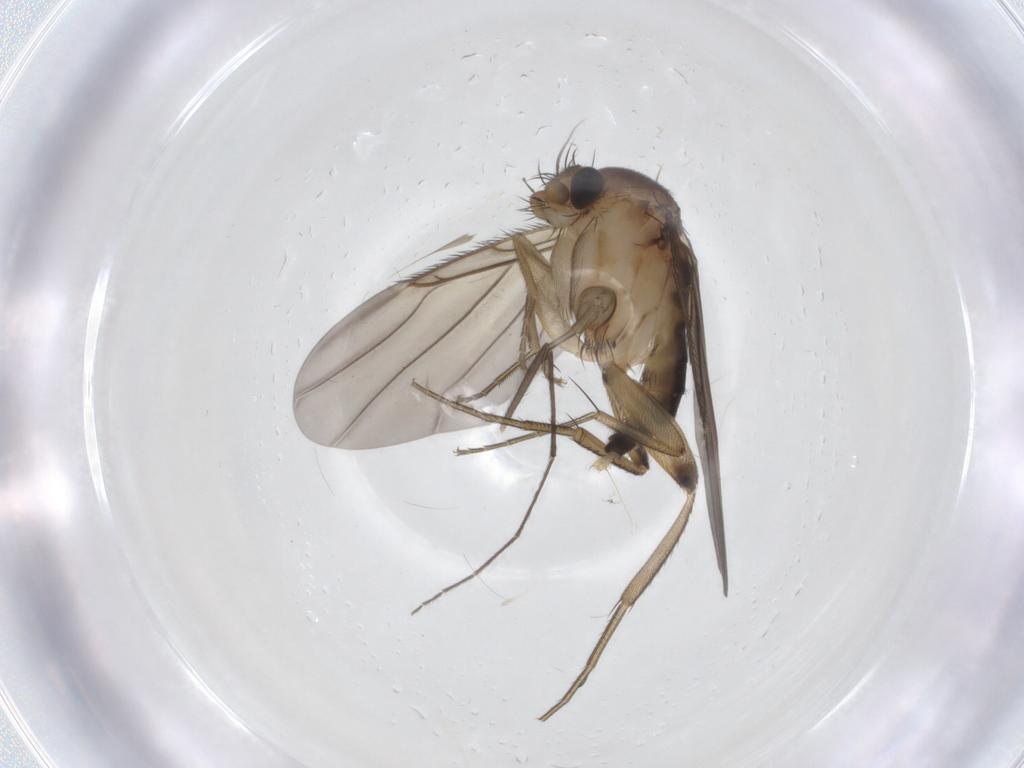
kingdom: Animalia
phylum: Arthropoda
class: Insecta
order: Diptera
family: Phoridae
